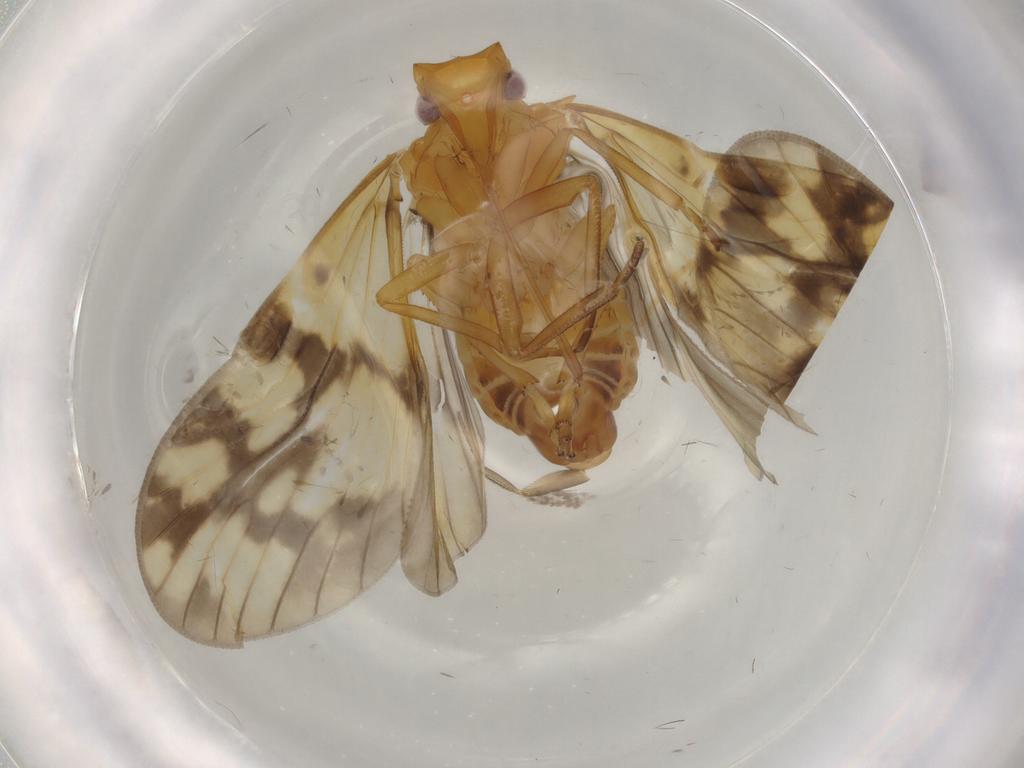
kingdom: Animalia
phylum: Arthropoda
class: Insecta
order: Hemiptera
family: Cixiidae
